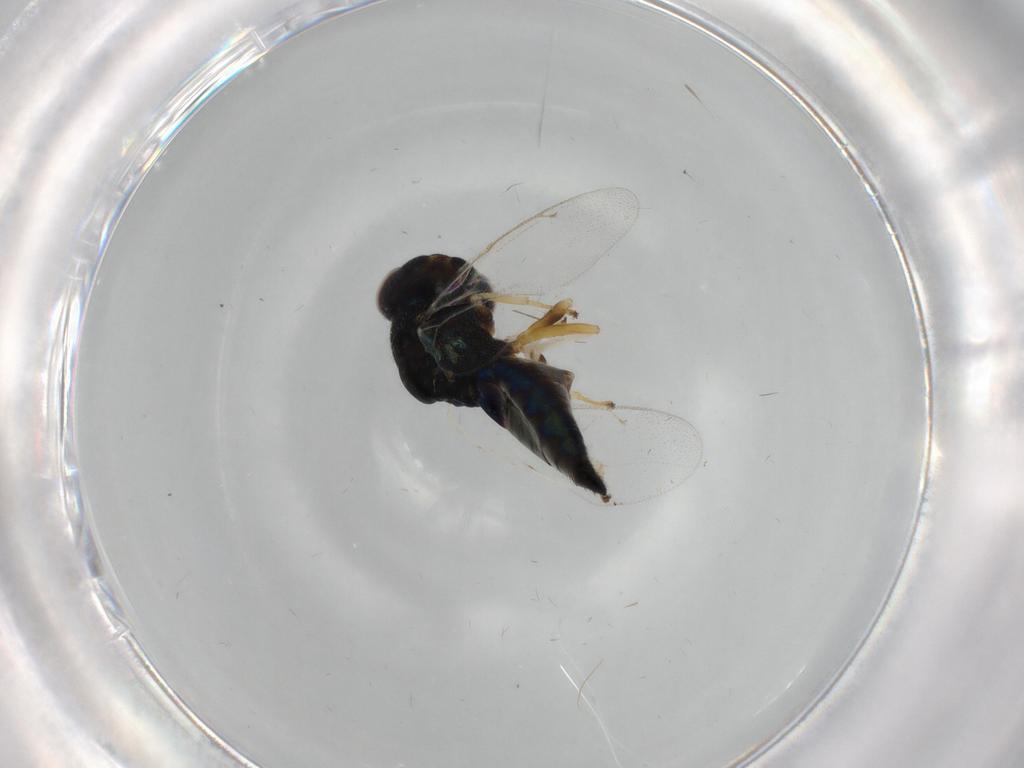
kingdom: Animalia
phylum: Arthropoda
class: Insecta
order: Hymenoptera
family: Pteromalidae
